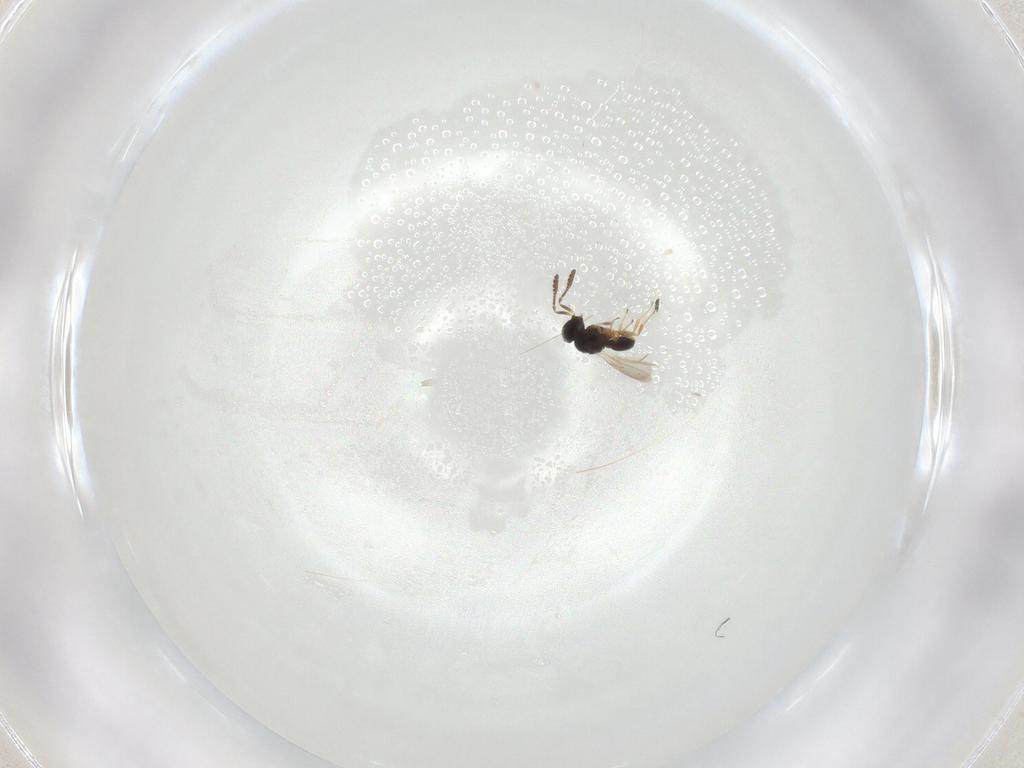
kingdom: Animalia
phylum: Arthropoda
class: Insecta
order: Hymenoptera
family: Scelionidae
